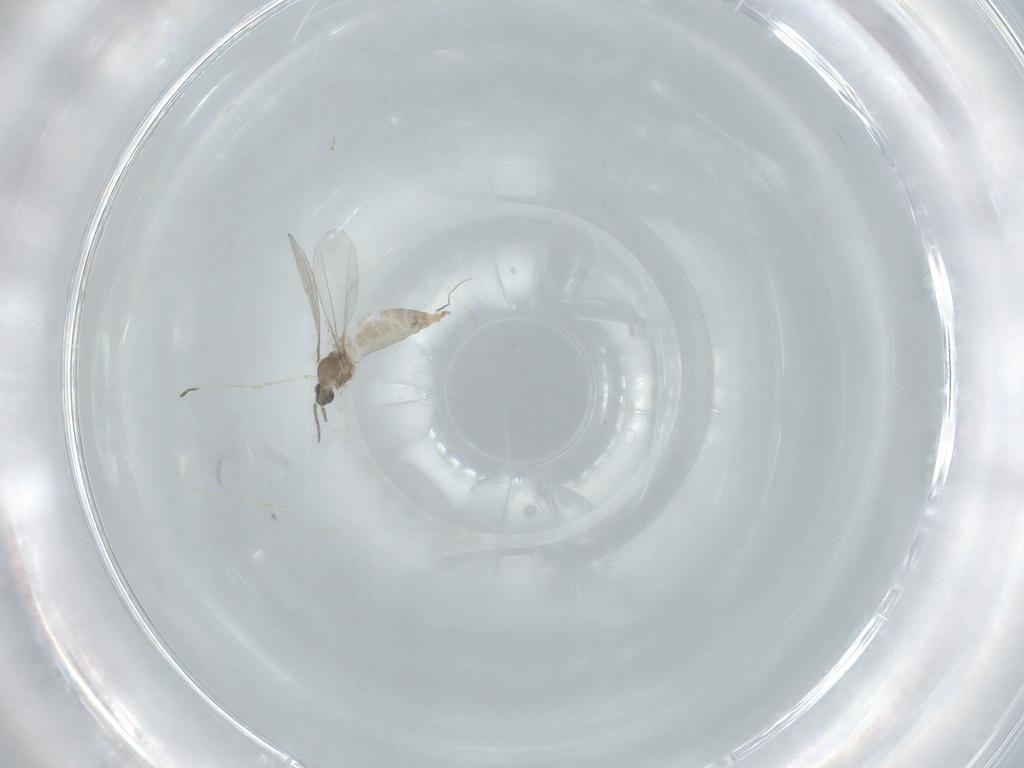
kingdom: Animalia
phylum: Arthropoda
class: Insecta
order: Diptera
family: Cecidomyiidae
